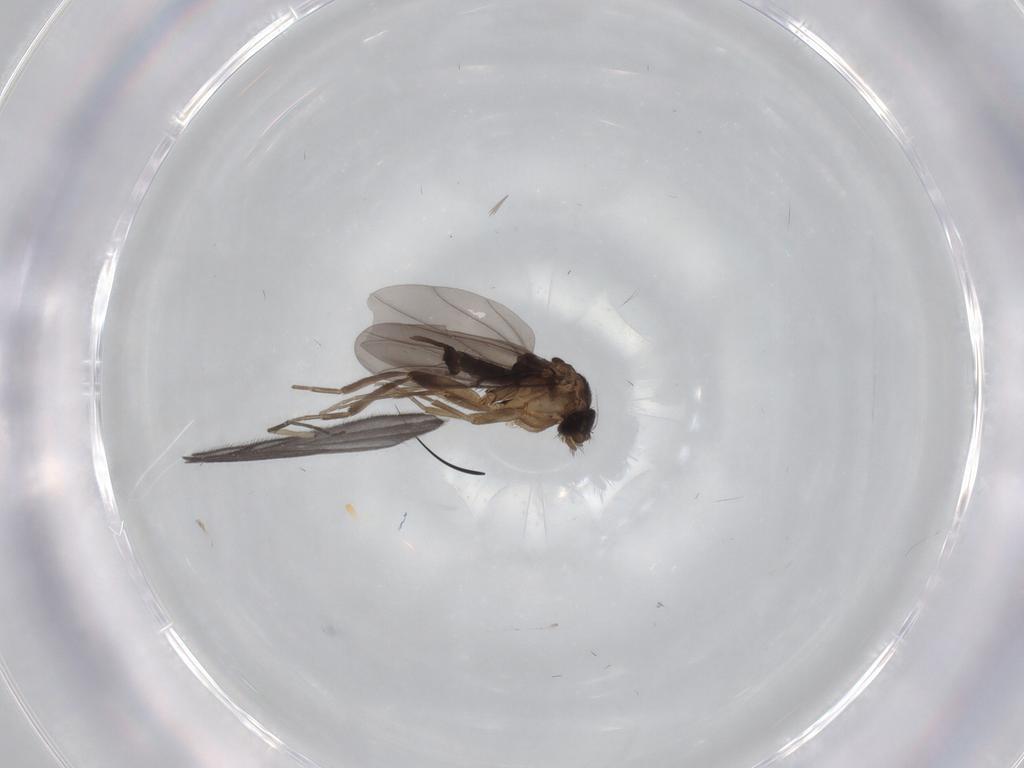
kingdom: Animalia
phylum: Arthropoda
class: Insecta
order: Diptera
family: Phoridae
